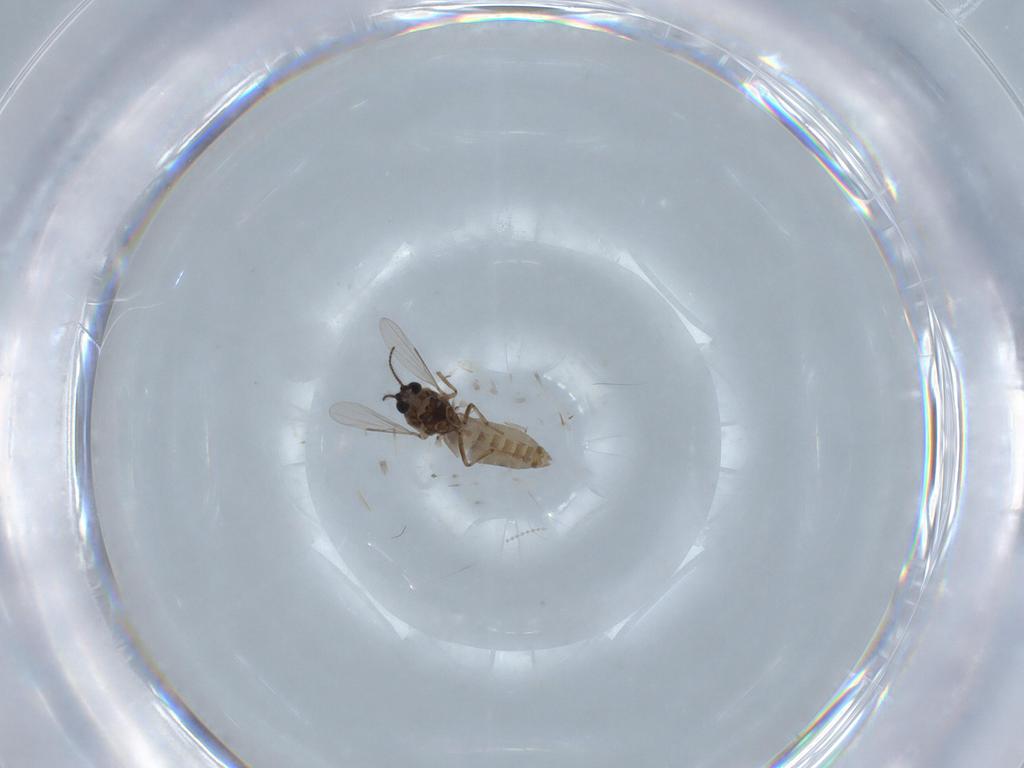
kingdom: Animalia
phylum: Arthropoda
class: Insecta
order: Diptera
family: Ceratopogonidae
